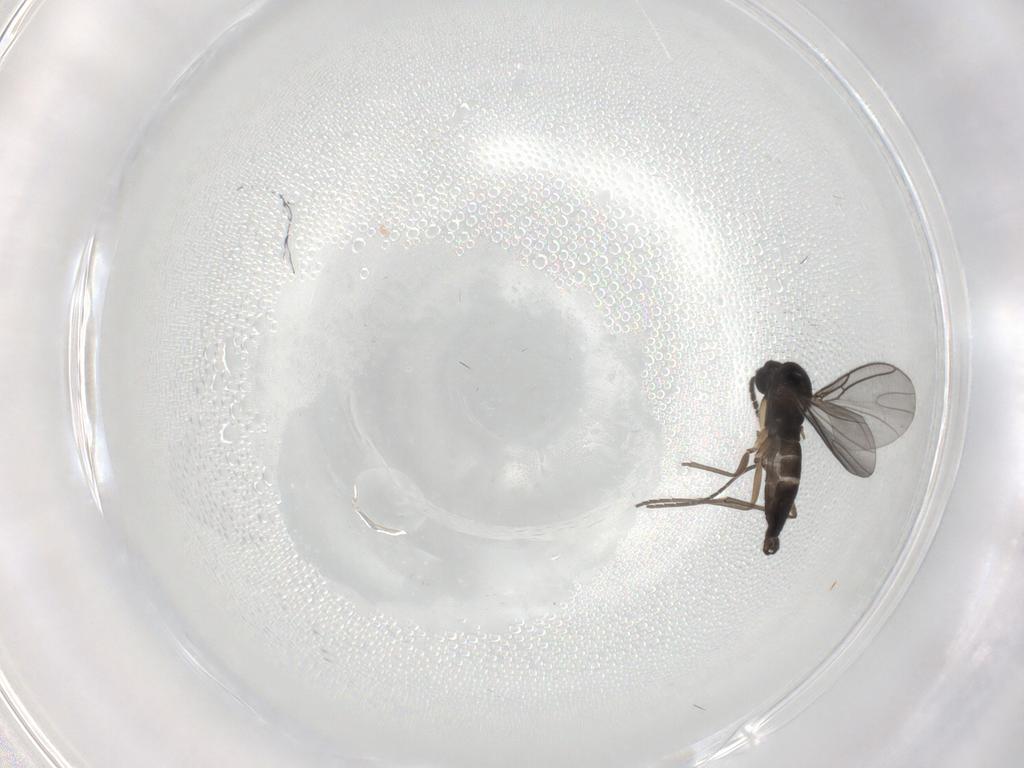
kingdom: Animalia
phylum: Arthropoda
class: Insecta
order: Diptera
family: Sciaridae
